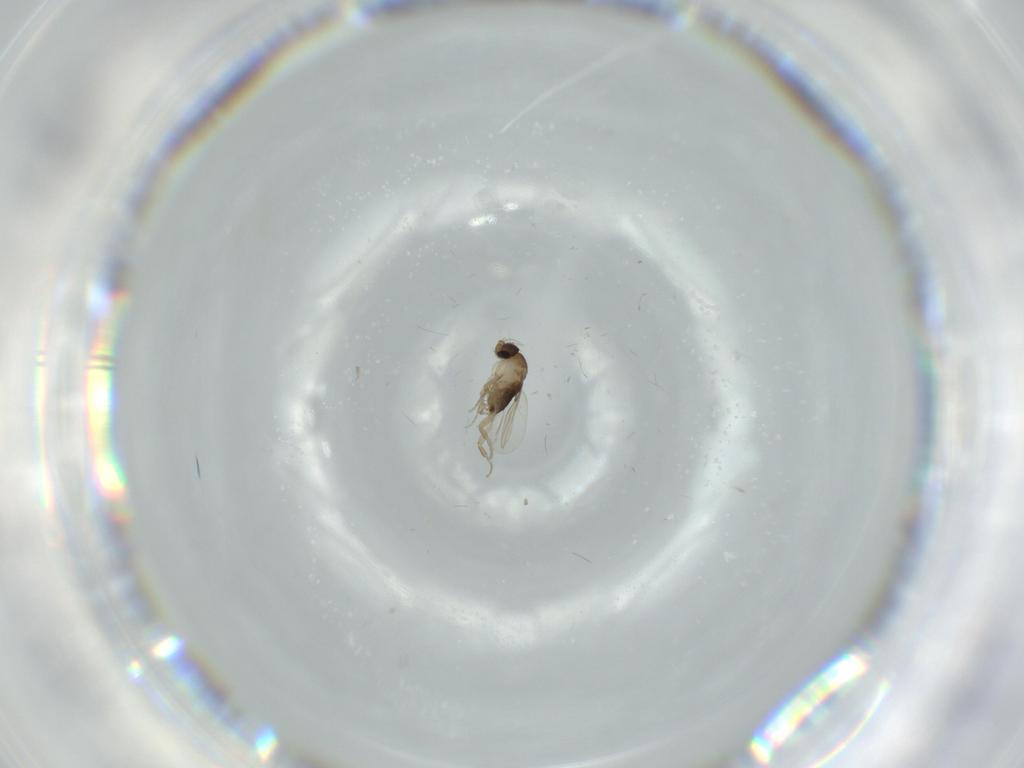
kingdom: Animalia
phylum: Arthropoda
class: Insecta
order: Diptera
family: Phoridae
